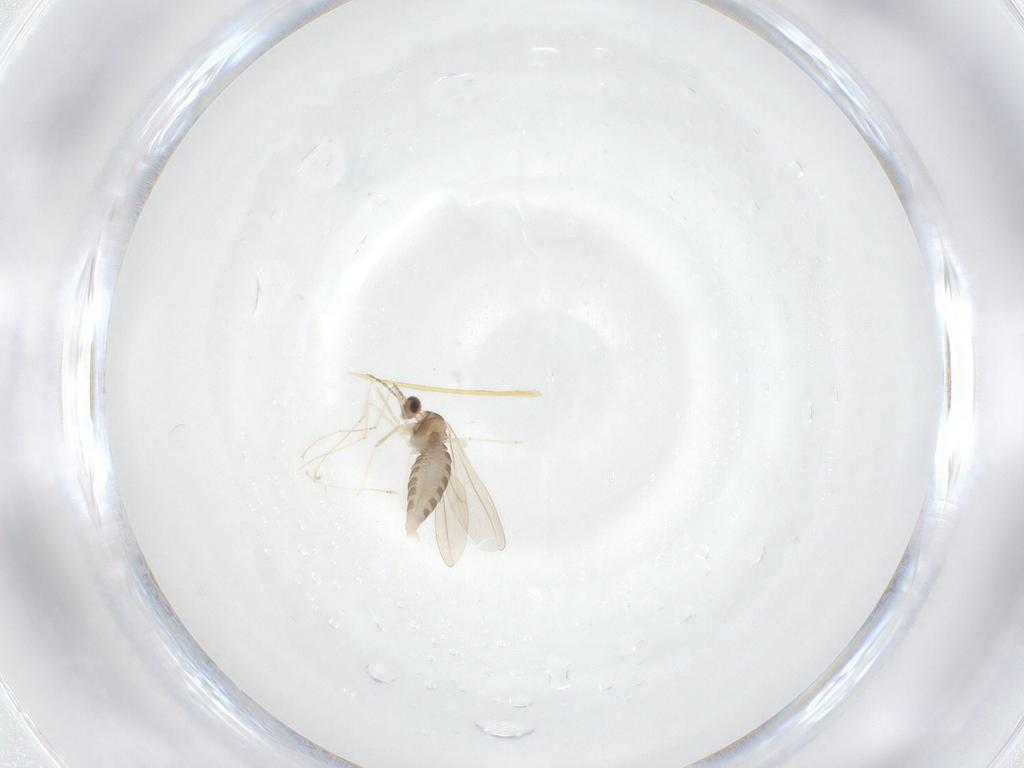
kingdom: Animalia
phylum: Arthropoda
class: Insecta
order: Diptera
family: Cecidomyiidae
